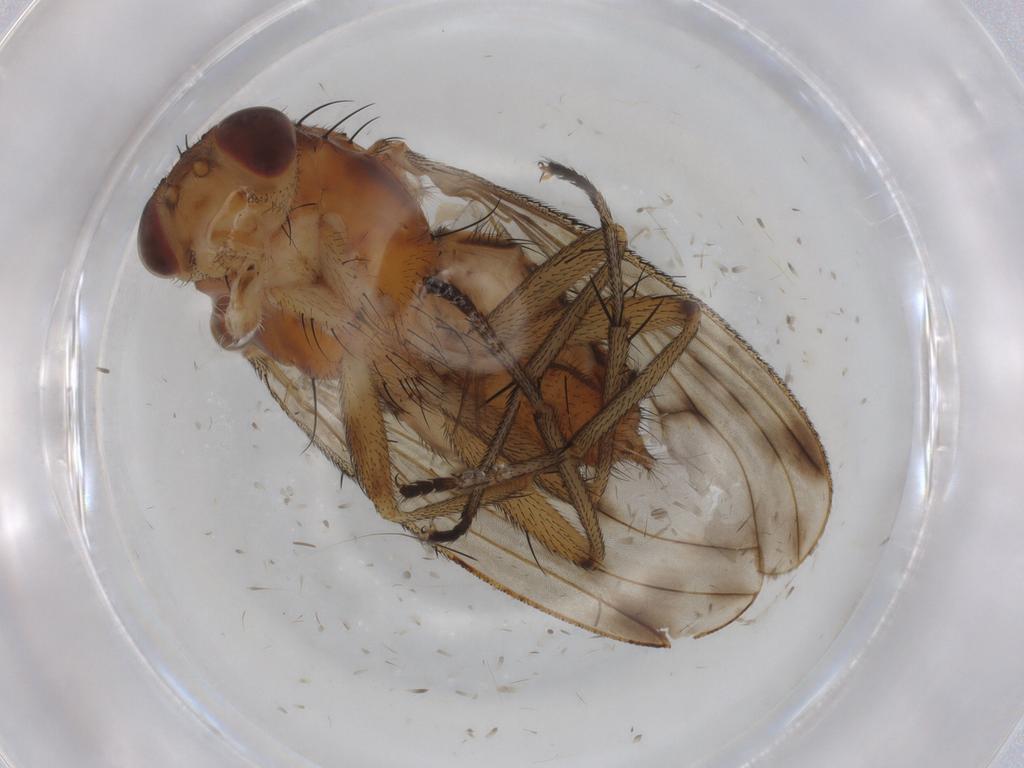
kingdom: Animalia
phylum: Arthropoda
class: Insecta
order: Diptera
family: Heleomyzidae
